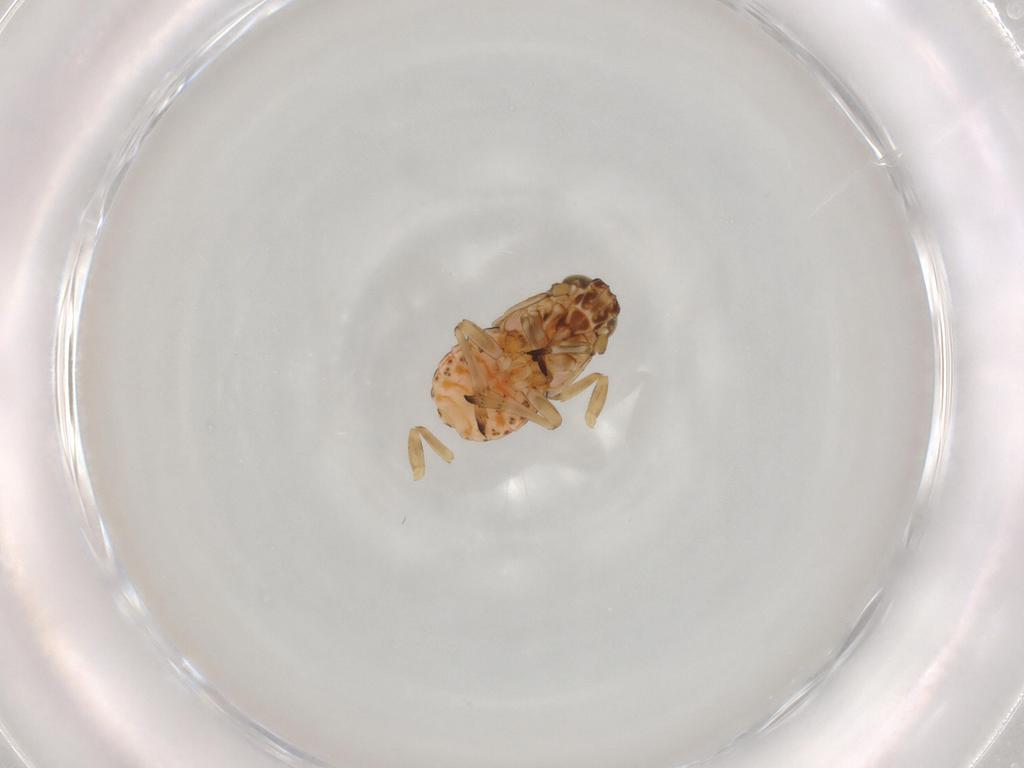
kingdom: Animalia
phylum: Arthropoda
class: Insecta
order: Hemiptera
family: Delphacidae
